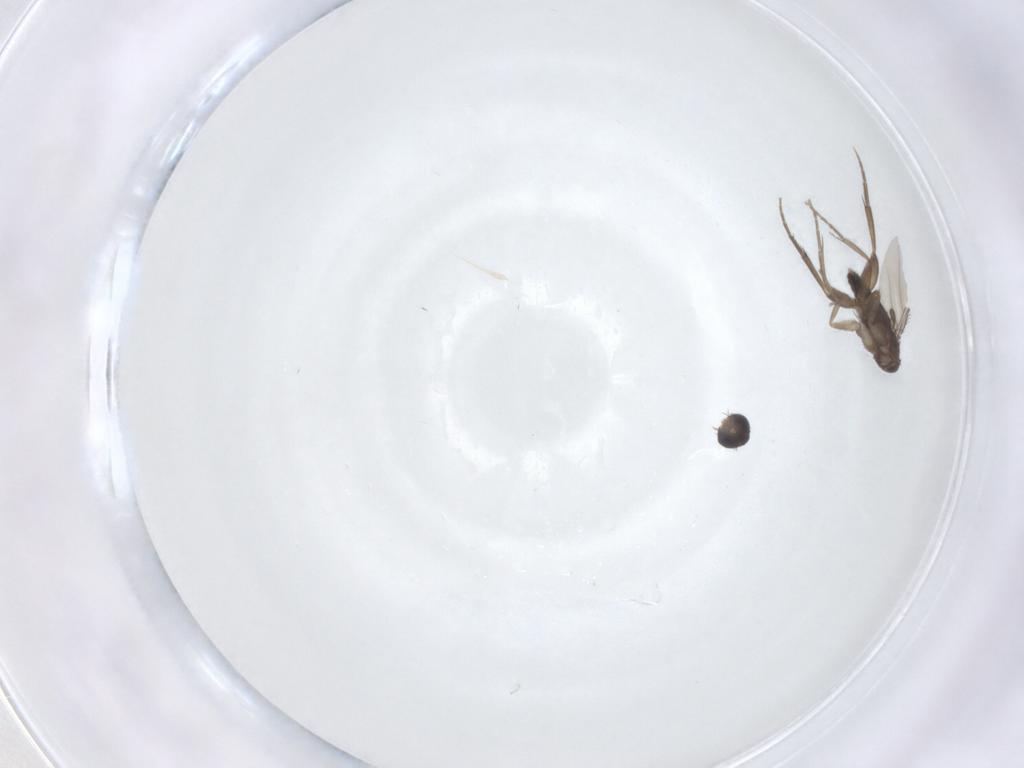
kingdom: Animalia
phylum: Arthropoda
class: Insecta
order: Diptera
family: Phoridae
